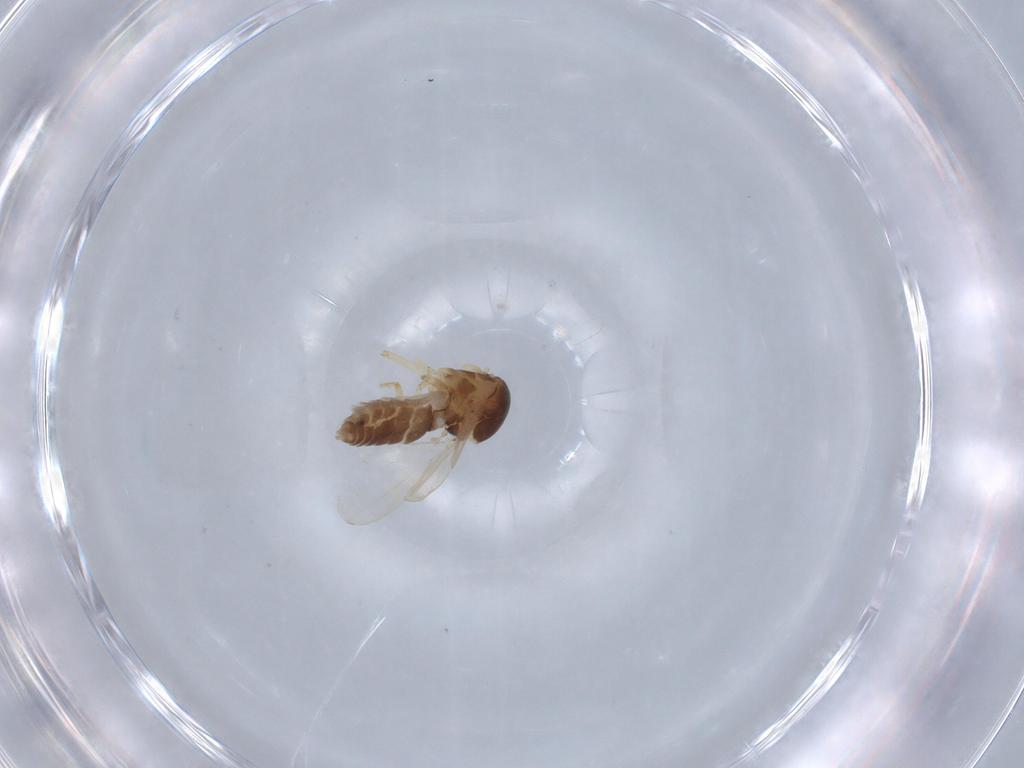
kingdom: Animalia
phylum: Arthropoda
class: Insecta
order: Diptera
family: Ceratopogonidae
